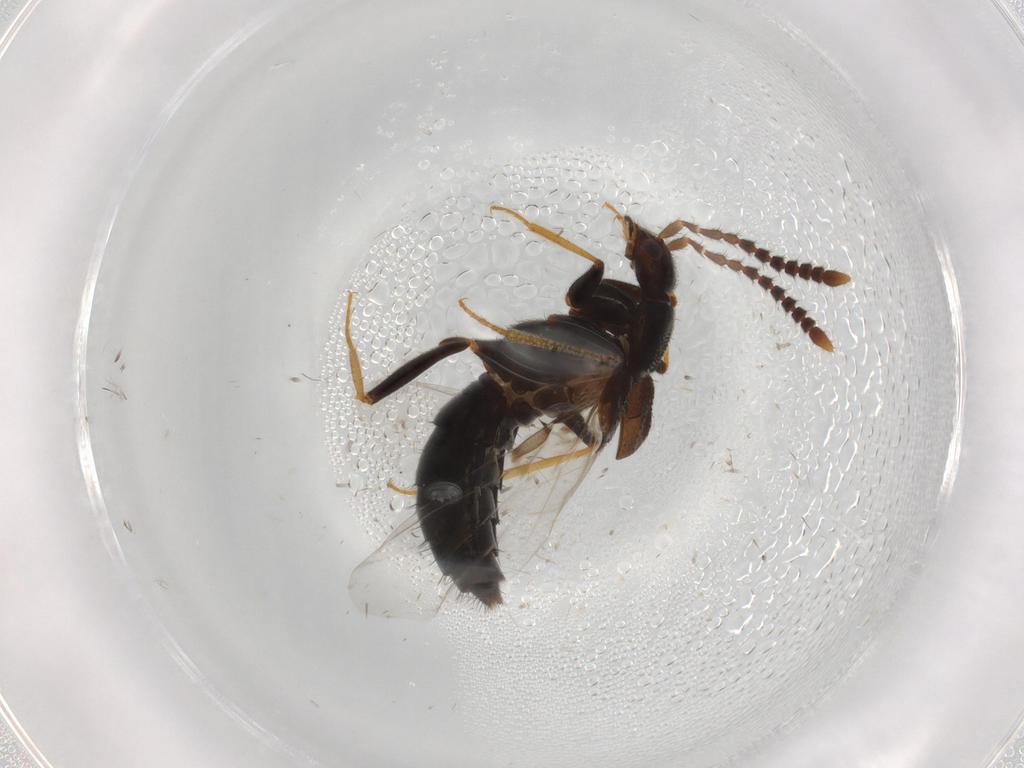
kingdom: Animalia
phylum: Arthropoda
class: Insecta
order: Coleoptera
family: Staphylinidae
